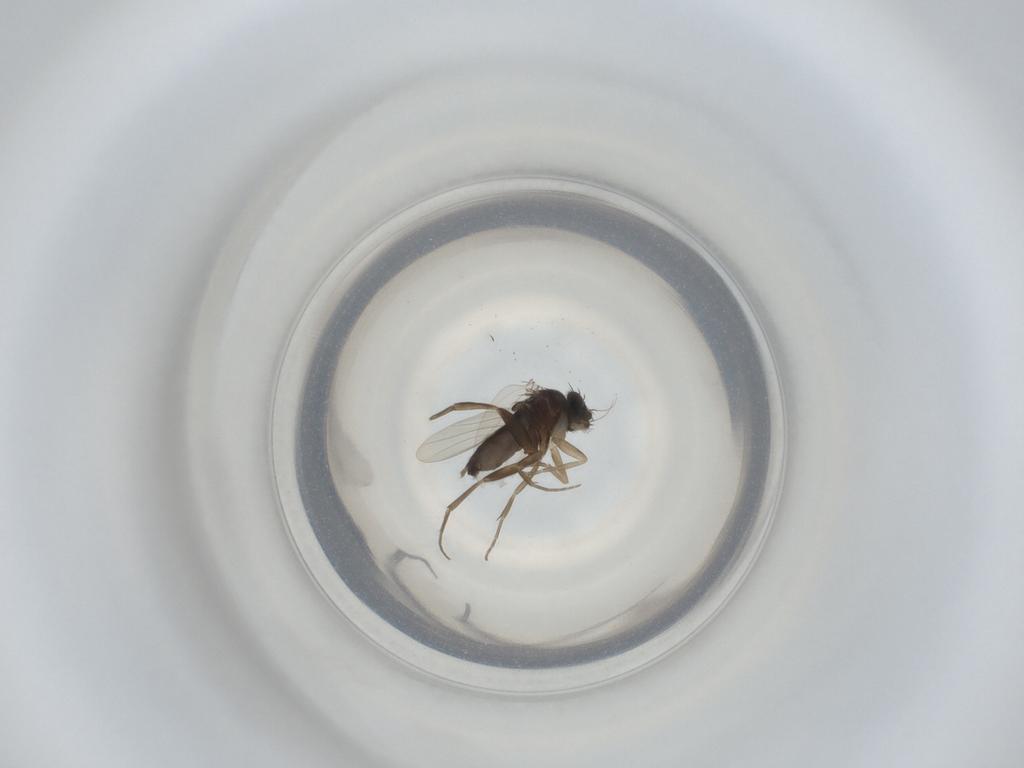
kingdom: Animalia
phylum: Arthropoda
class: Insecta
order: Diptera
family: Phoridae
